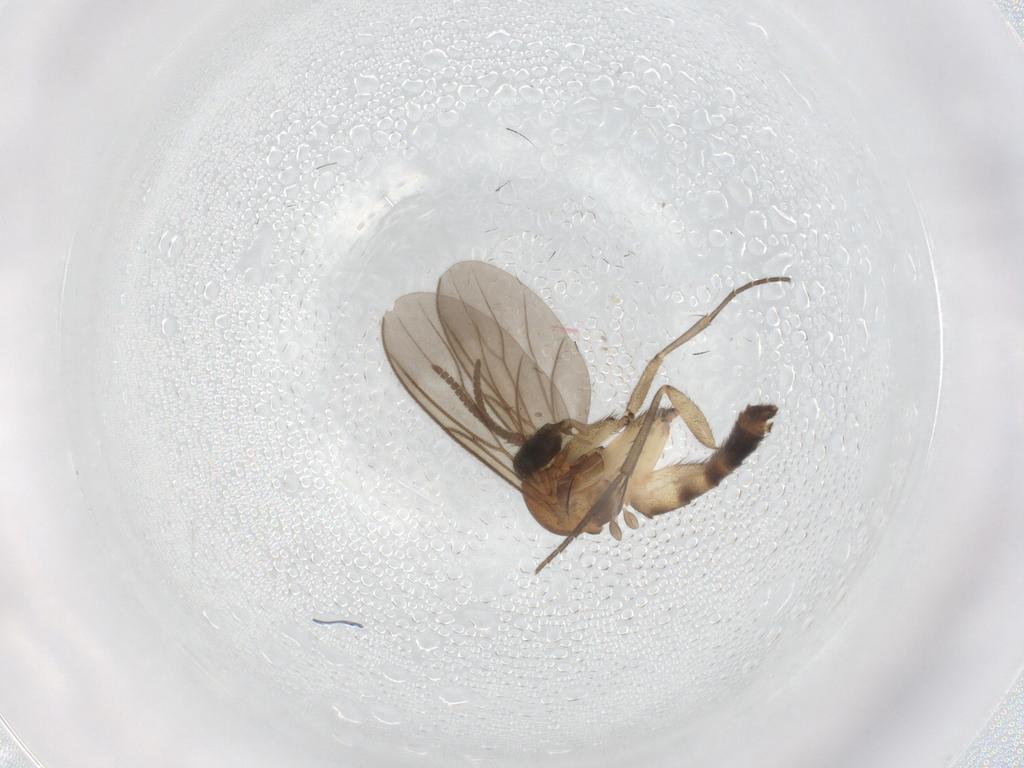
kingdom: Animalia
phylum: Arthropoda
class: Insecta
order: Diptera
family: Mycetophilidae
